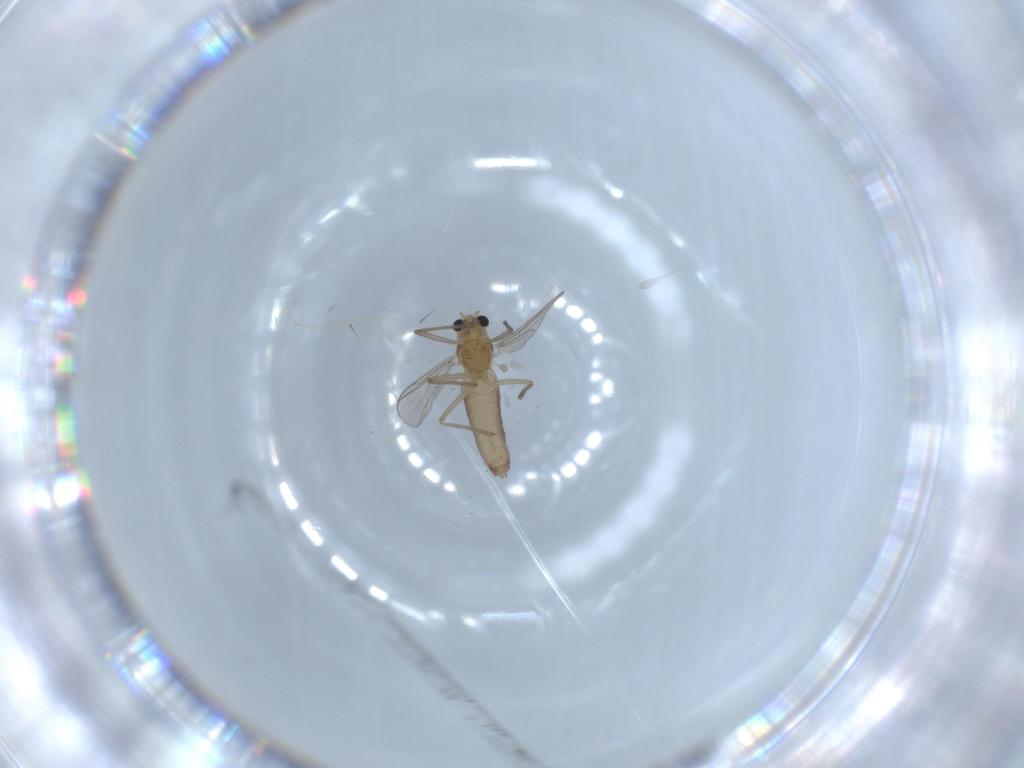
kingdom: Animalia
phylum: Arthropoda
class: Insecta
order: Diptera
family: Chironomidae
